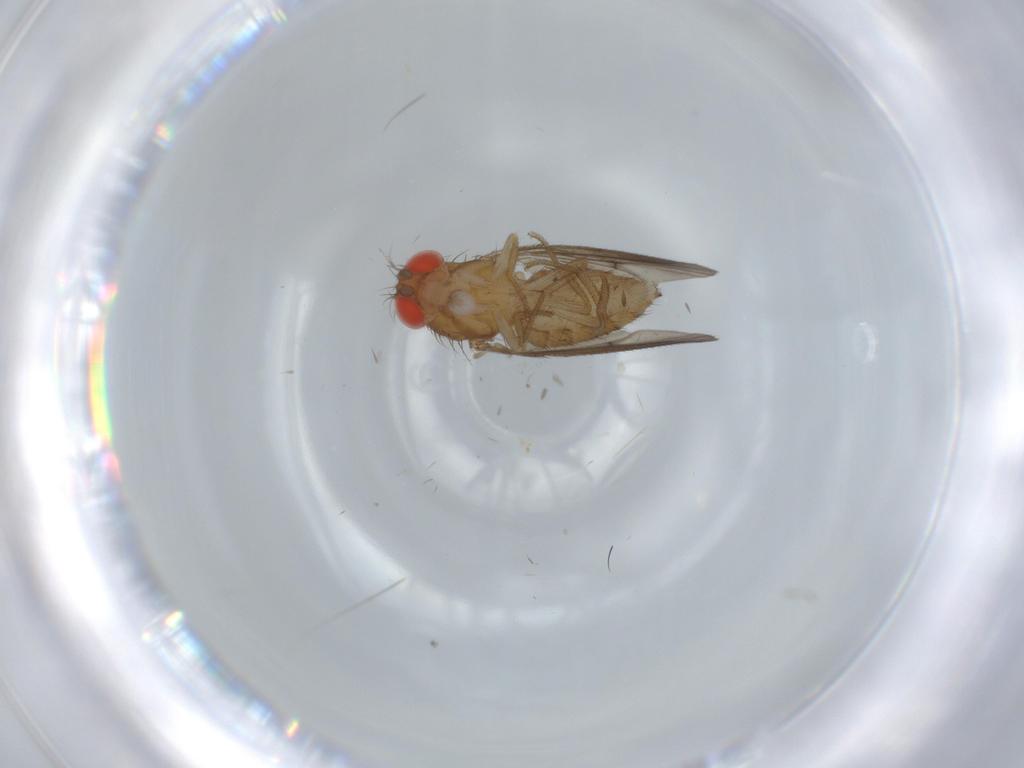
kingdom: Animalia
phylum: Arthropoda
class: Insecta
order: Diptera
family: Drosophilidae
